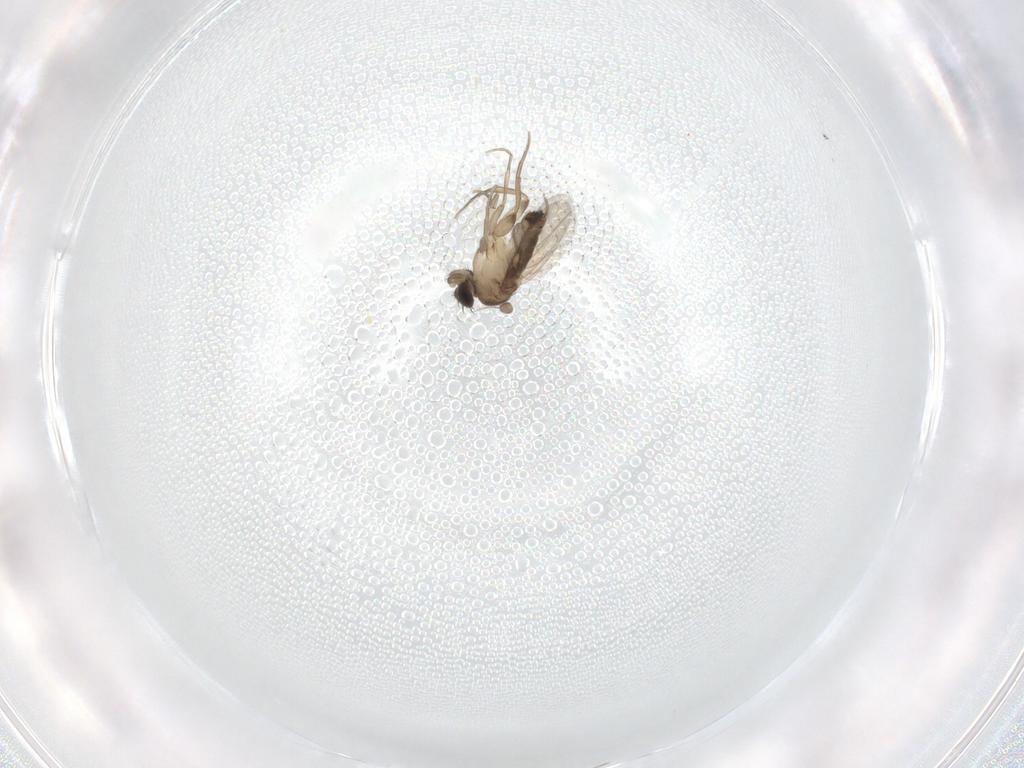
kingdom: Animalia
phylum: Arthropoda
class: Insecta
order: Diptera
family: Phoridae
